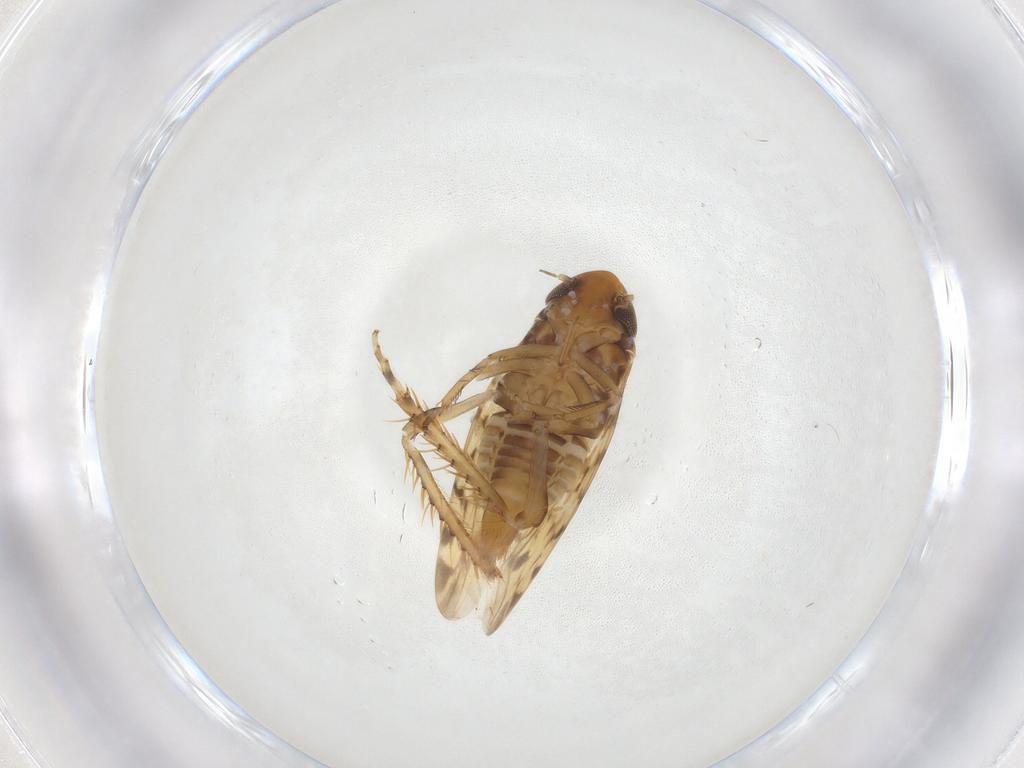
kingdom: Animalia
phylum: Arthropoda
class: Insecta
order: Hemiptera
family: Cicadellidae
